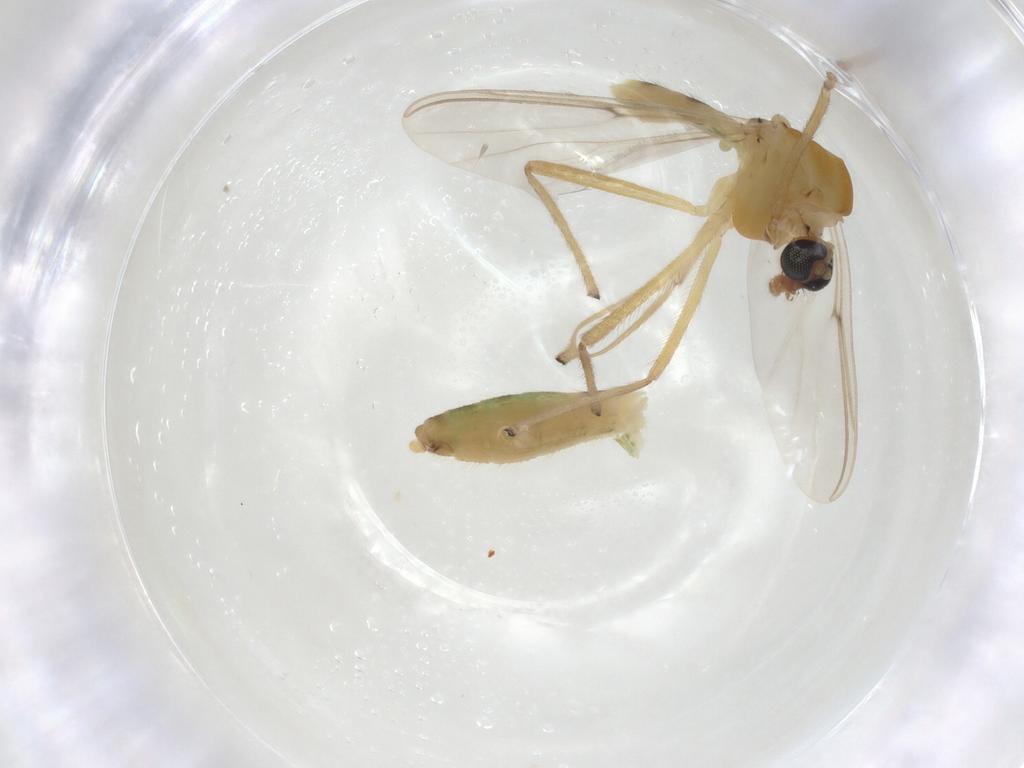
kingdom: Animalia
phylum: Arthropoda
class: Insecta
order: Diptera
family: Chironomidae
